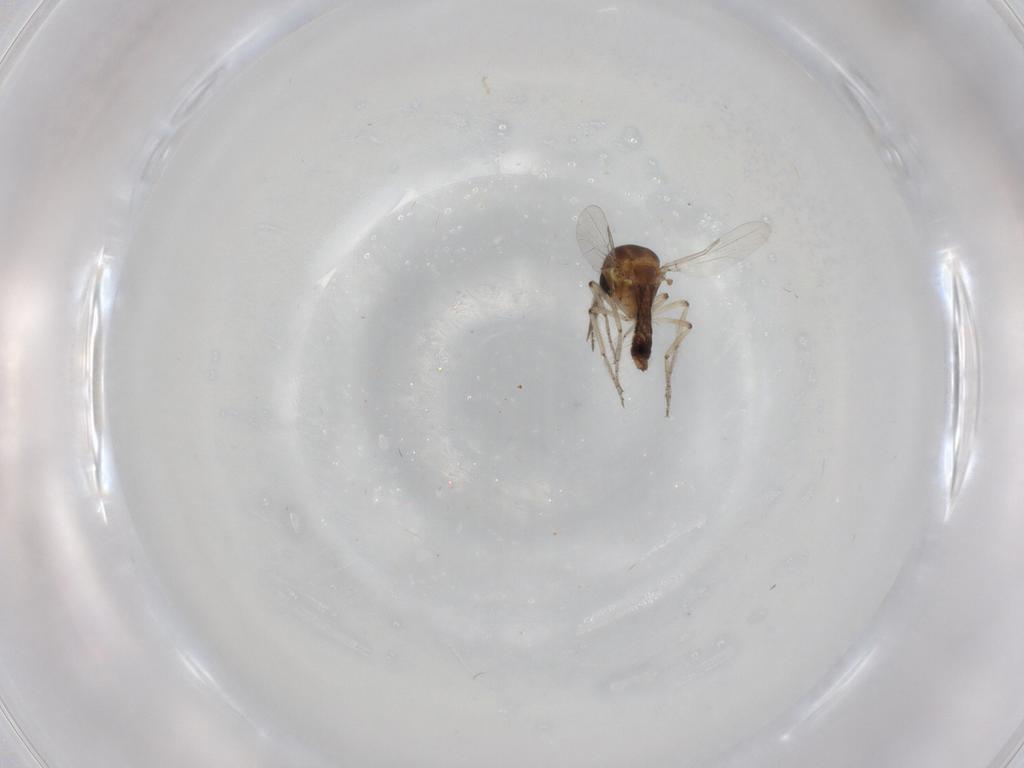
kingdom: Animalia
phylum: Arthropoda
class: Insecta
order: Diptera
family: Ceratopogonidae
